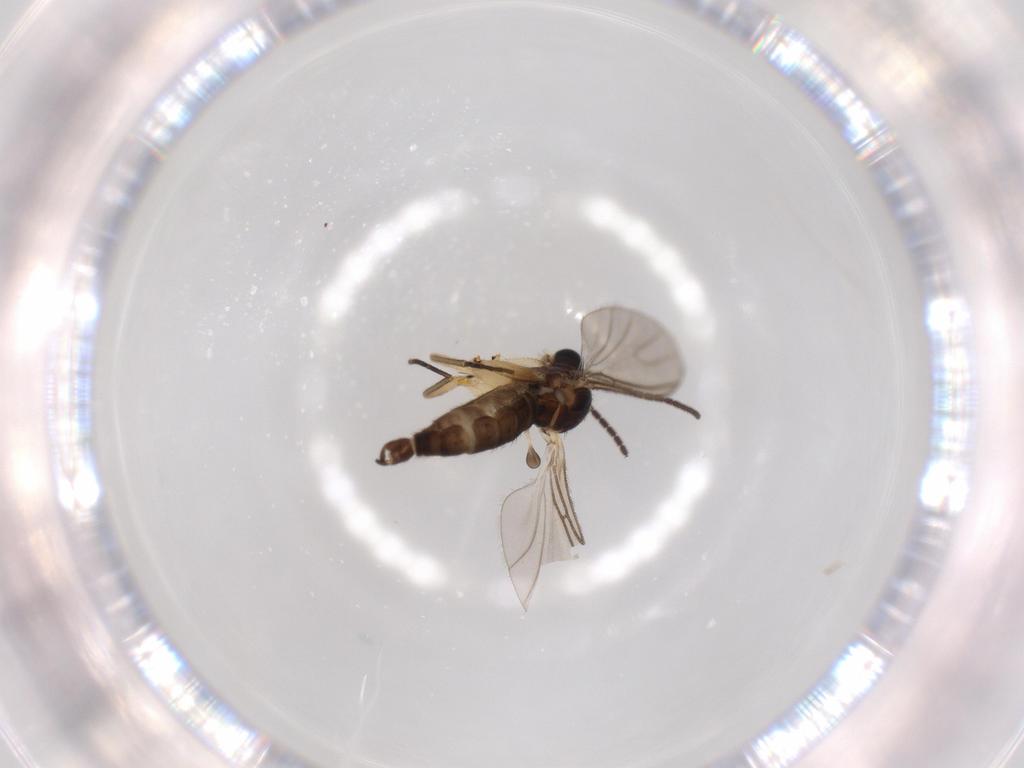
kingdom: Animalia
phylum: Arthropoda
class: Insecta
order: Diptera
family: Sciaridae
